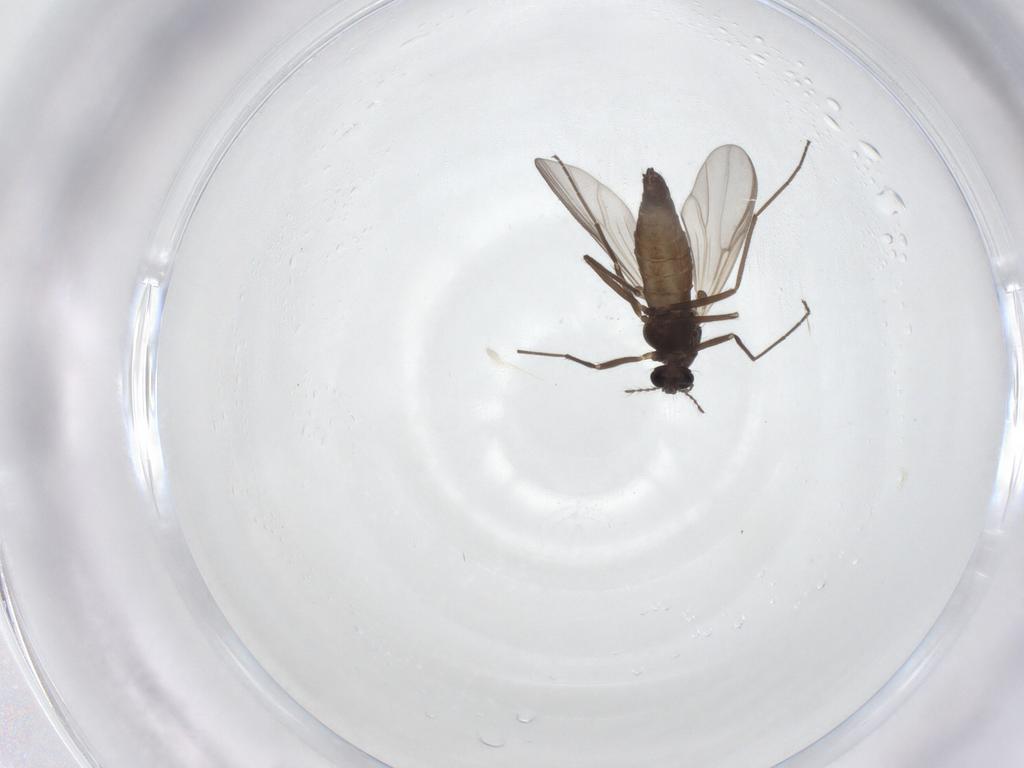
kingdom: Animalia
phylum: Arthropoda
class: Insecta
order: Diptera
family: Chironomidae
